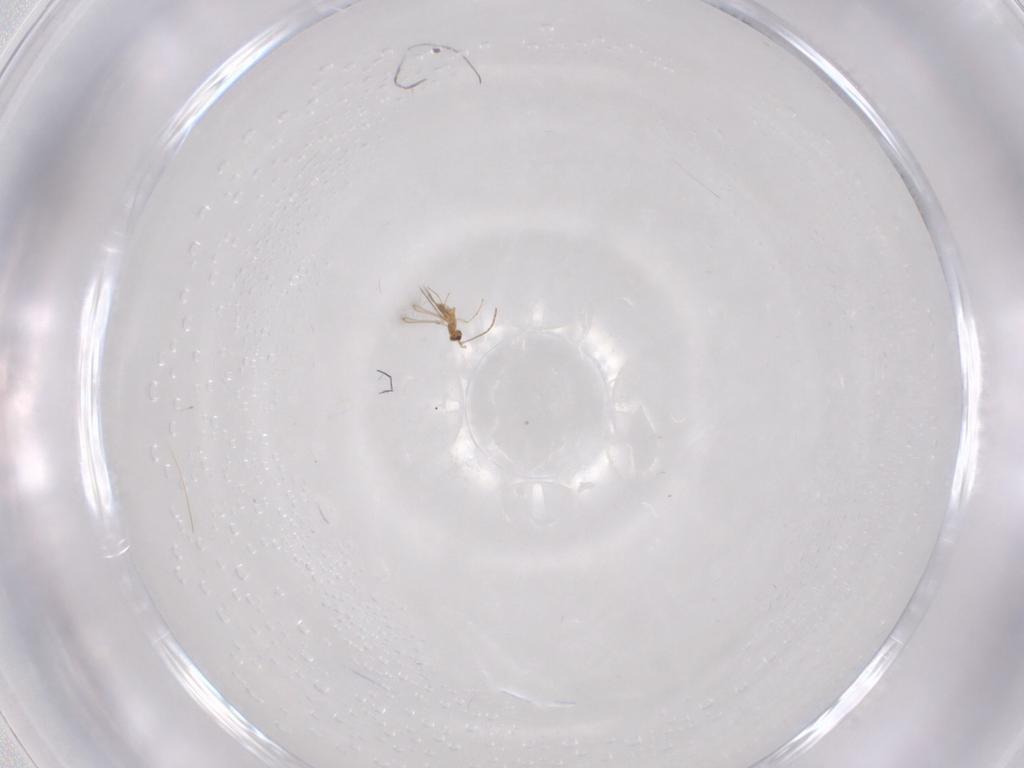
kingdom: Animalia
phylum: Arthropoda
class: Insecta
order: Hymenoptera
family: Mymaridae
